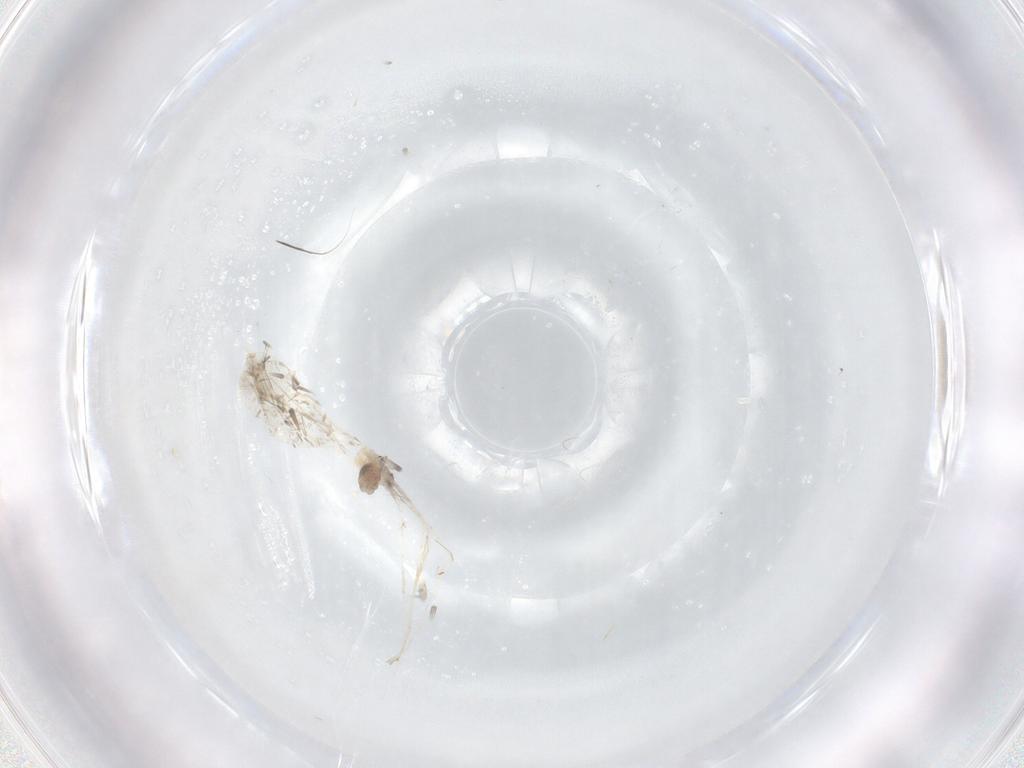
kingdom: Animalia
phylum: Arthropoda
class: Insecta
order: Diptera
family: Cecidomyiidae
